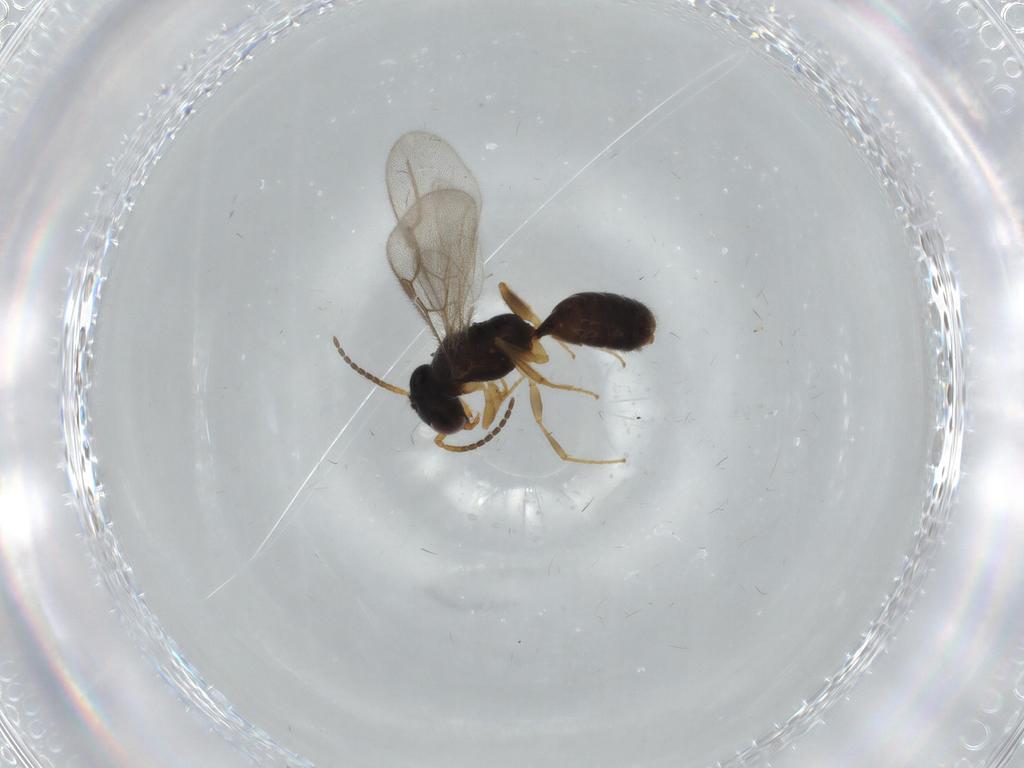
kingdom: Animalia
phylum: Arthropoda
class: Insecta
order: Hymenoptera
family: Bethylidae
